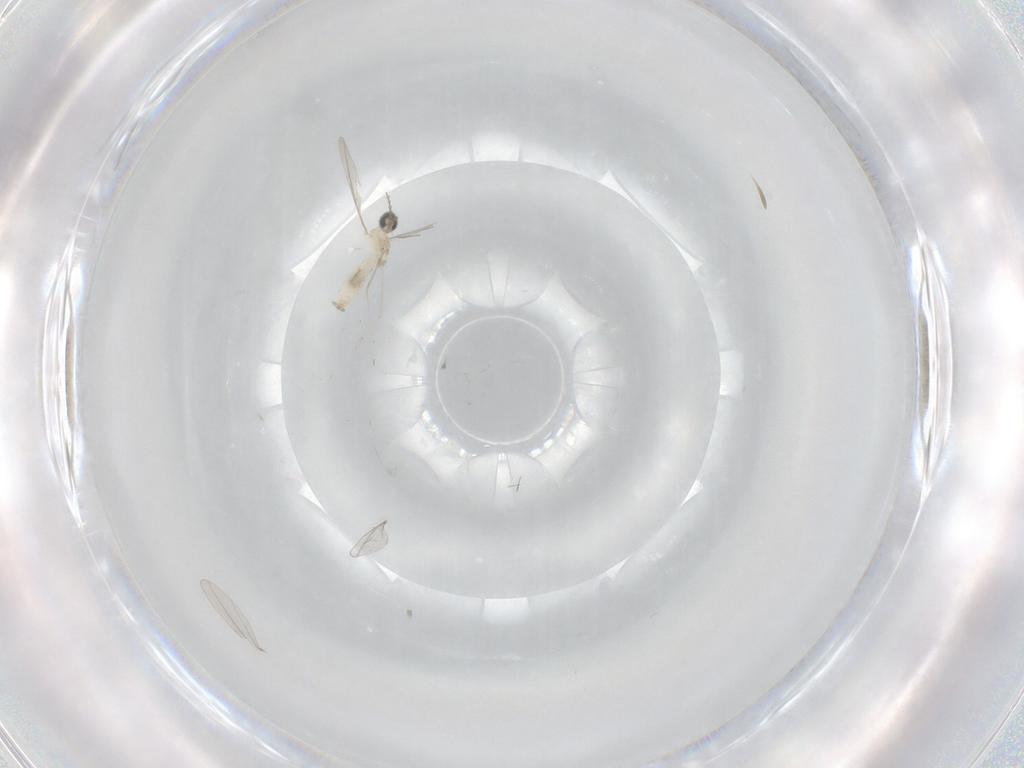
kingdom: Animalia
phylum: Arthropoda
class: Insecta
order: Diptera
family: Cecidomyiidae
